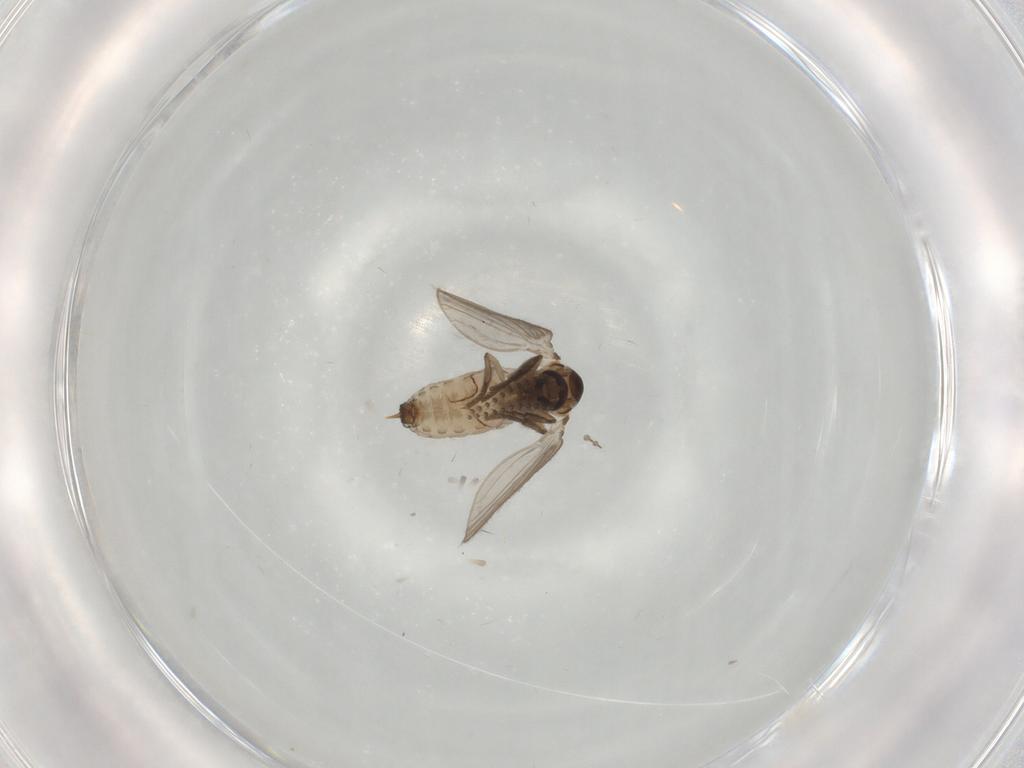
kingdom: Animalia
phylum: Arthropoda
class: Insecta
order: Diptera
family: Psychodidae
